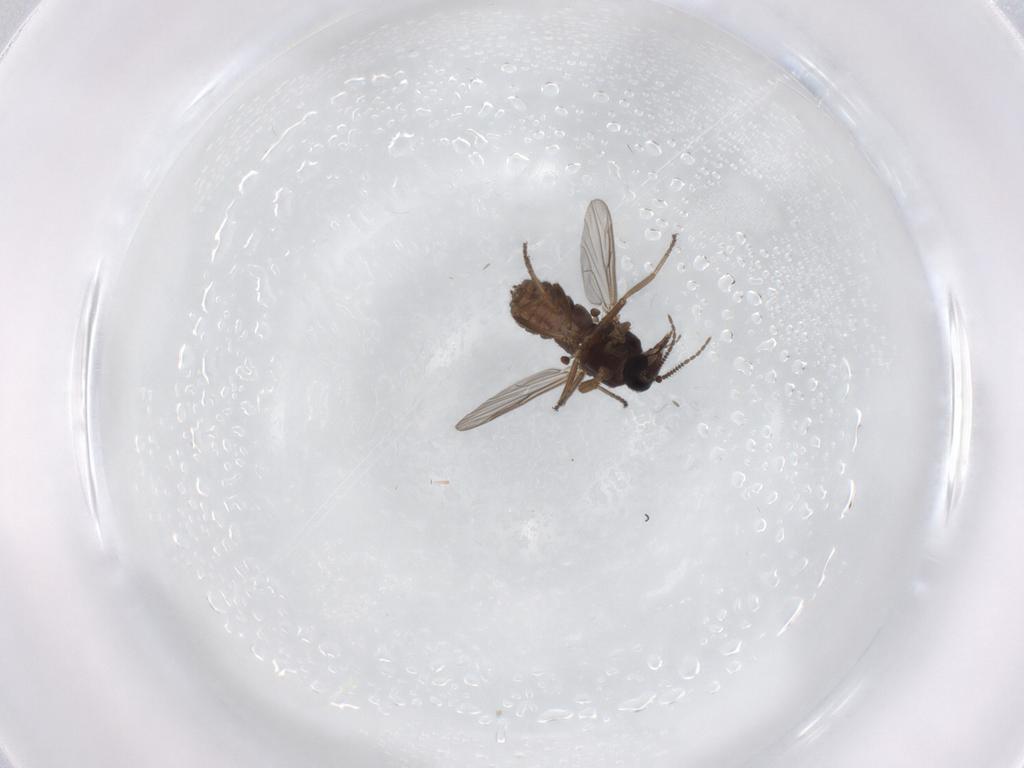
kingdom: Animalia
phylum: Arthropoda
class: Insecta
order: Diptera
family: Ceratopogonidae
